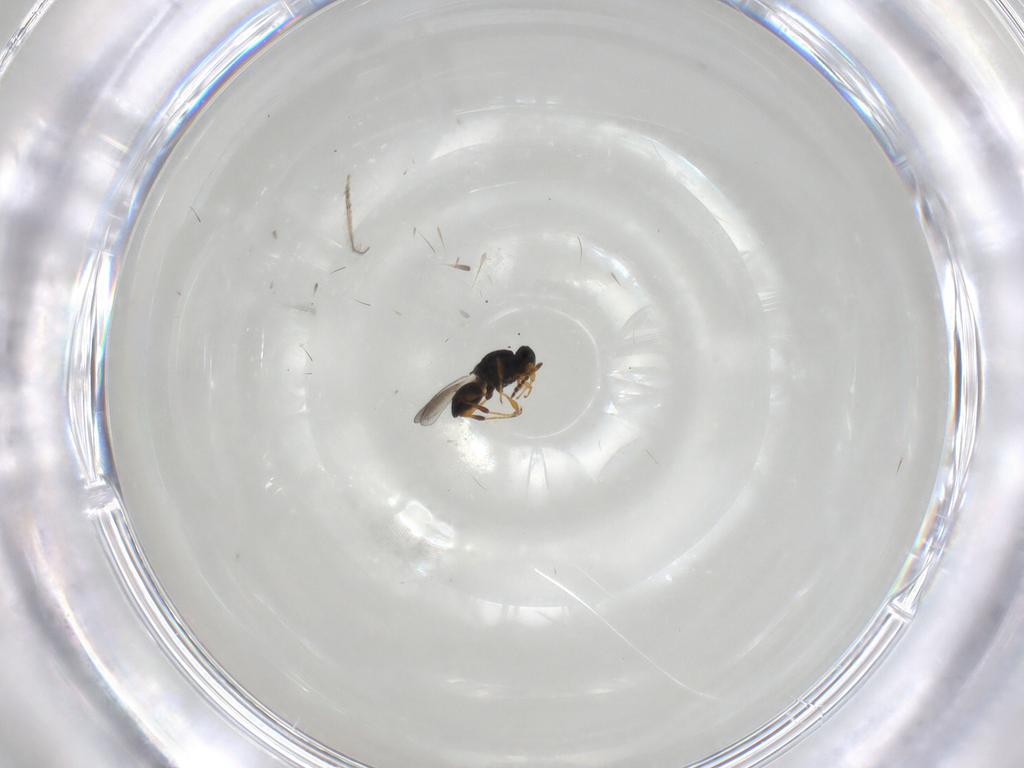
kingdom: Animalia
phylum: Arthropoda
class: Insecta
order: Hymenoptera
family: Platygastridae
